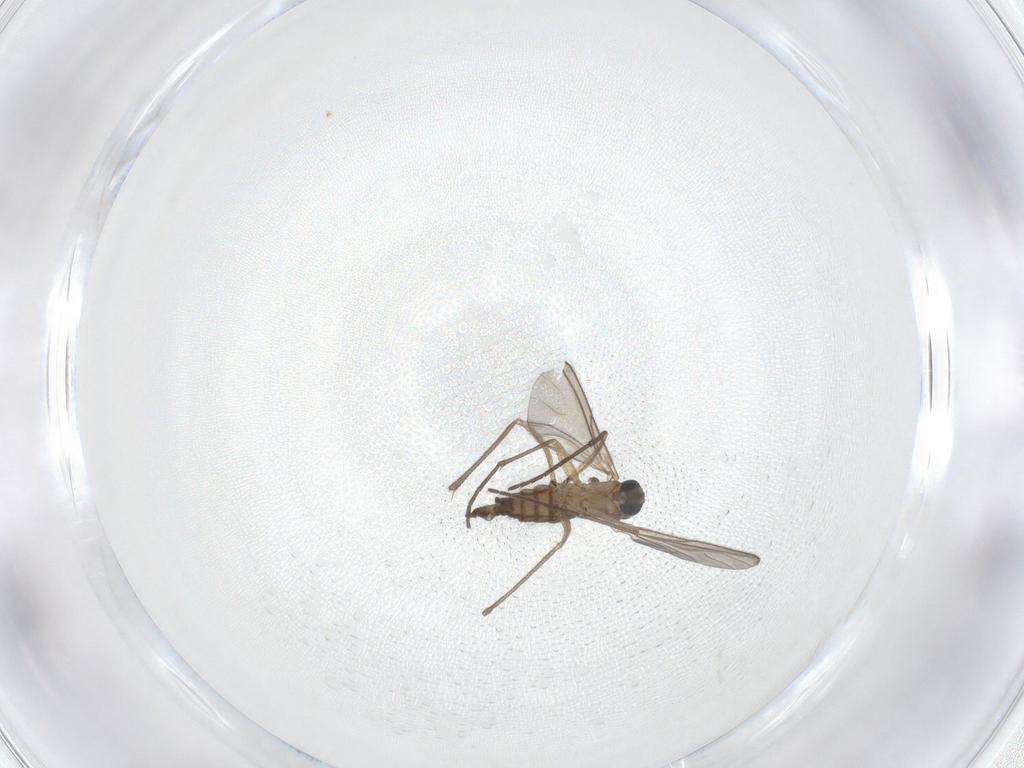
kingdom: Animalia
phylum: Arthropoda
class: Insecta
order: Diptera
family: Sciaridae
